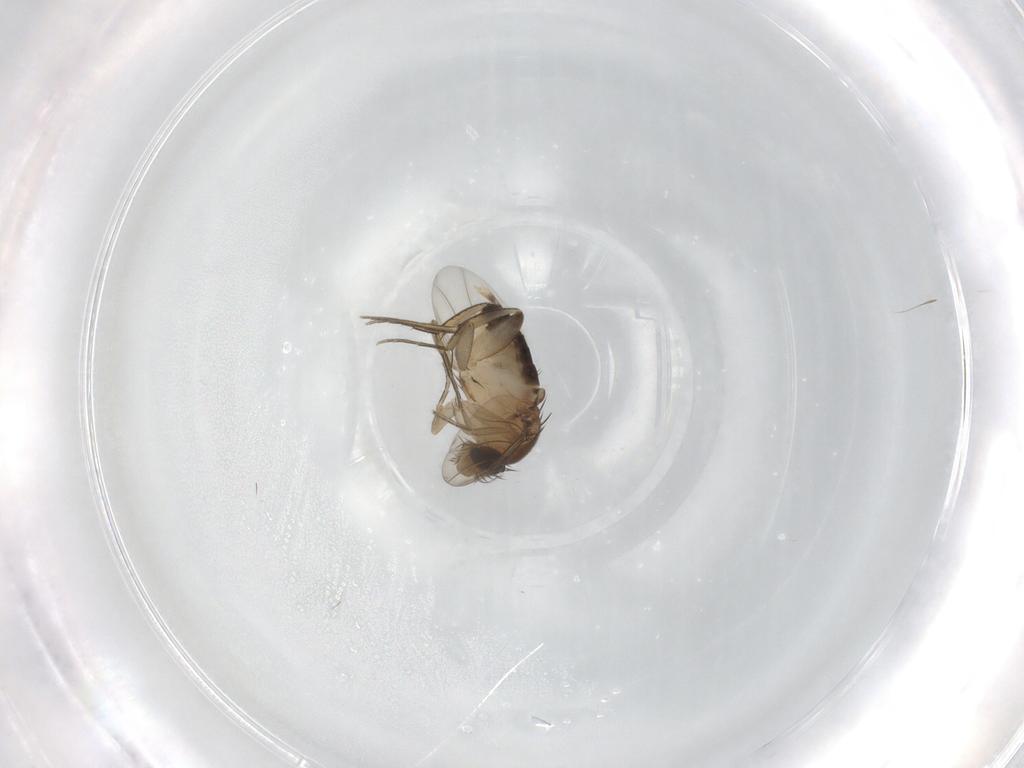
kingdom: Animalia
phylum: Arthropoda
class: Insecta
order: Diptera
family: Phoridae
